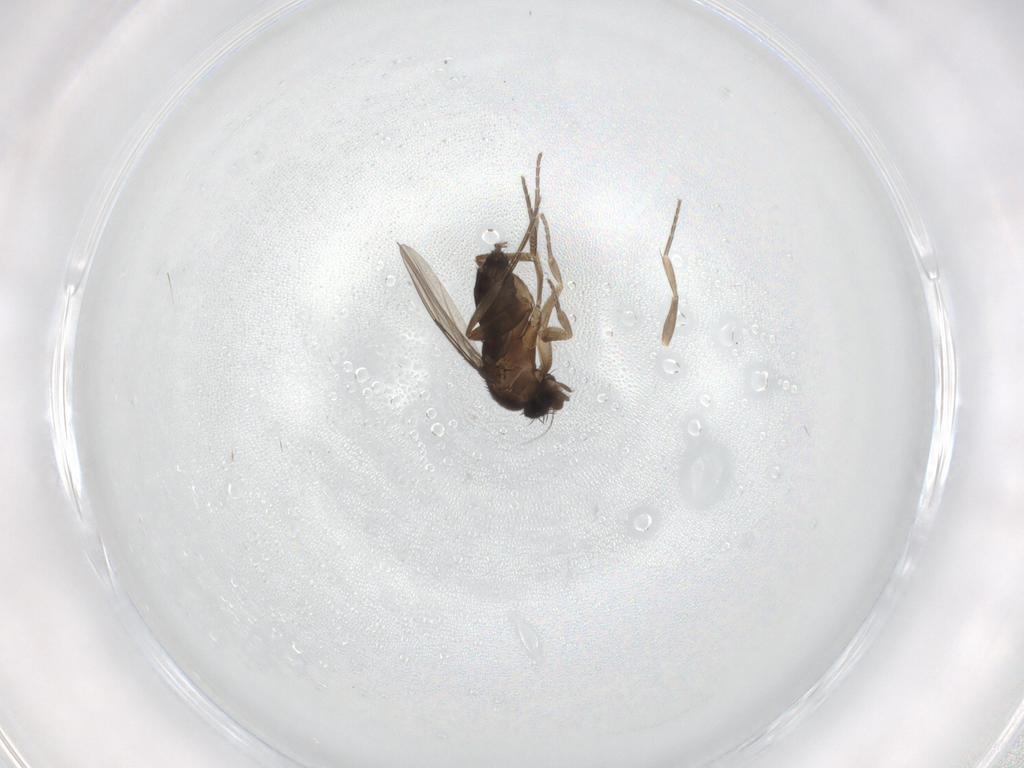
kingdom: Animalia
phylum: Arthropoda
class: Insecta
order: Diptera
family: Phoridae
